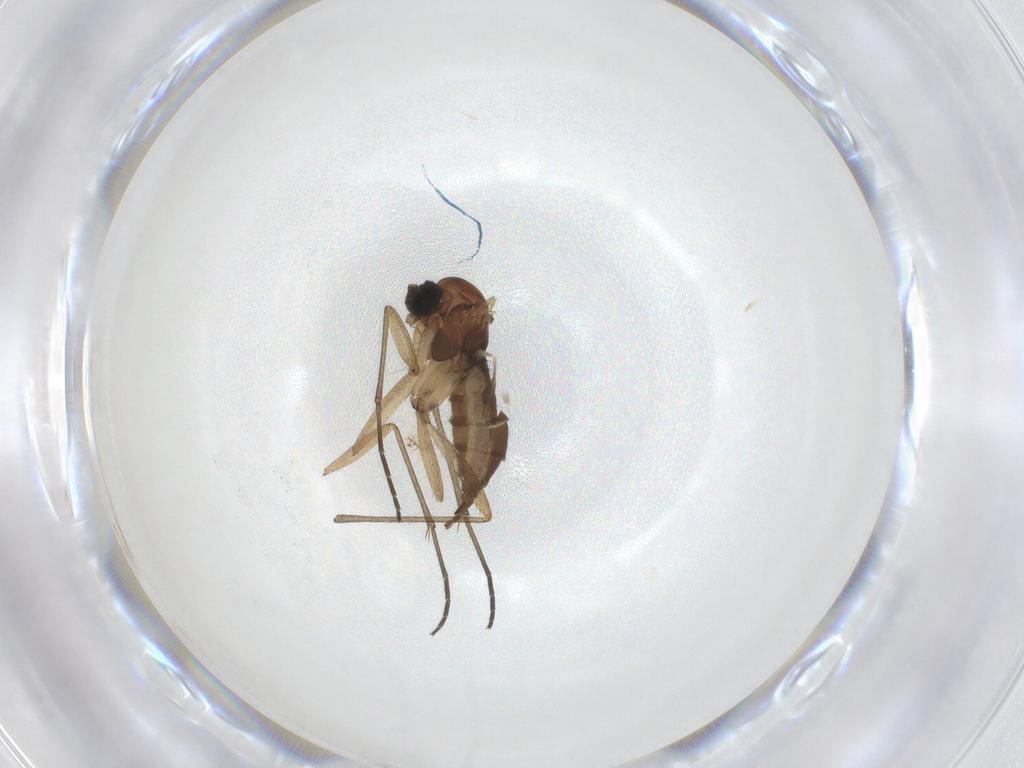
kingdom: Animalia
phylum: Arthropoda
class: Insecta
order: Diptera
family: Sciaridae
